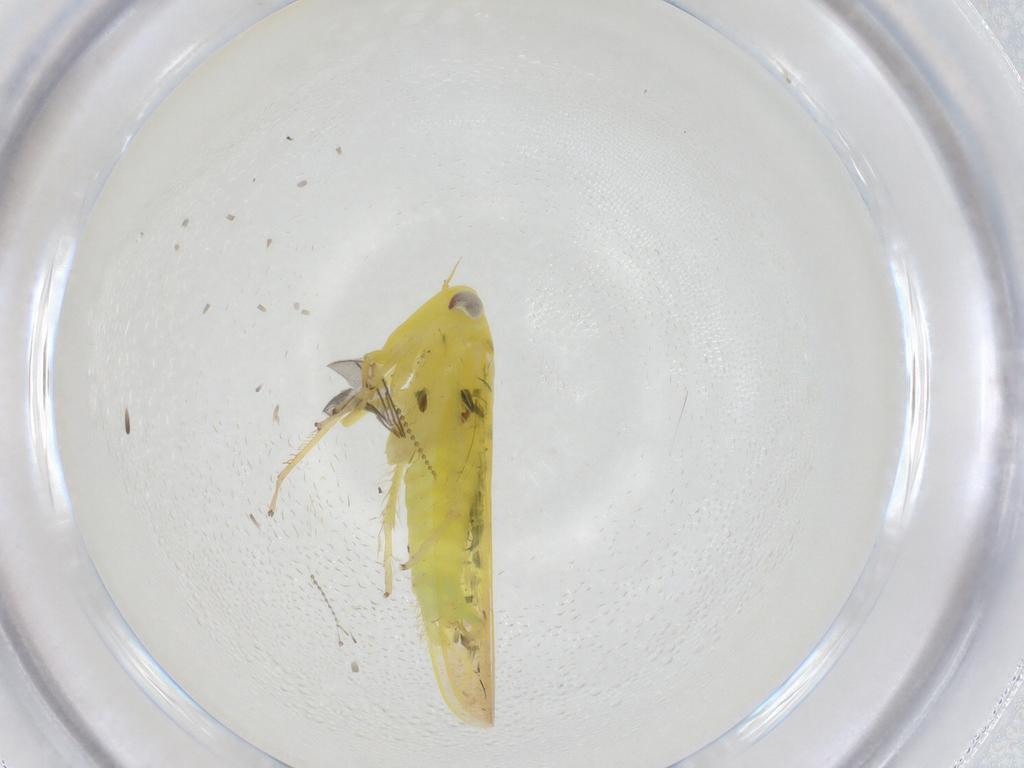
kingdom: Animalia
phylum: Arthropoda
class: Insecta
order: Hemiptera
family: Cicadellidae
